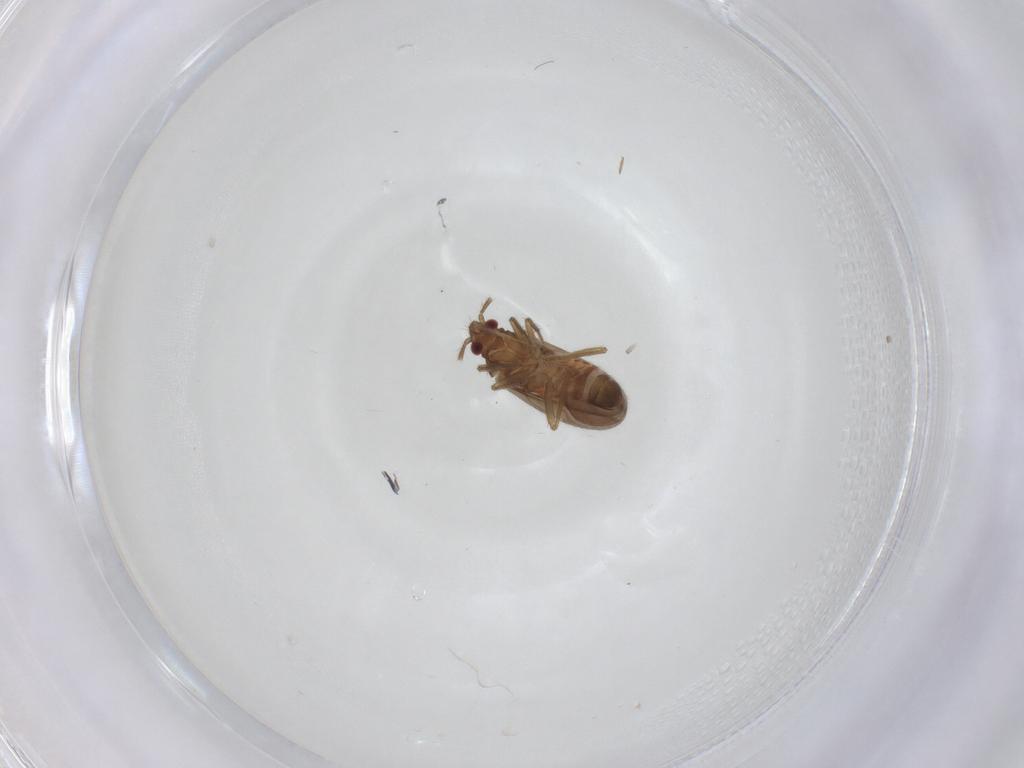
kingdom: Animalia
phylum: Arthropoda
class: Insecta
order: Hemiptera
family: Ceratocombidae
